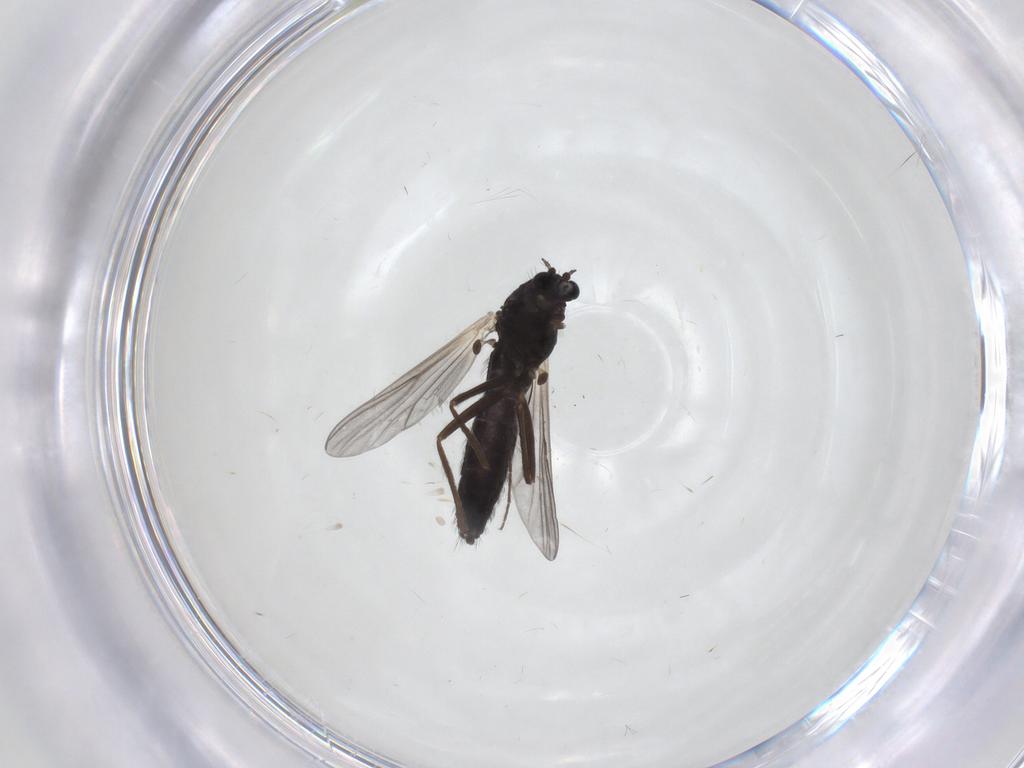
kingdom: Animalia
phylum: Arthropoda
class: Insecta
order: Diptera
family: Chironomidae
